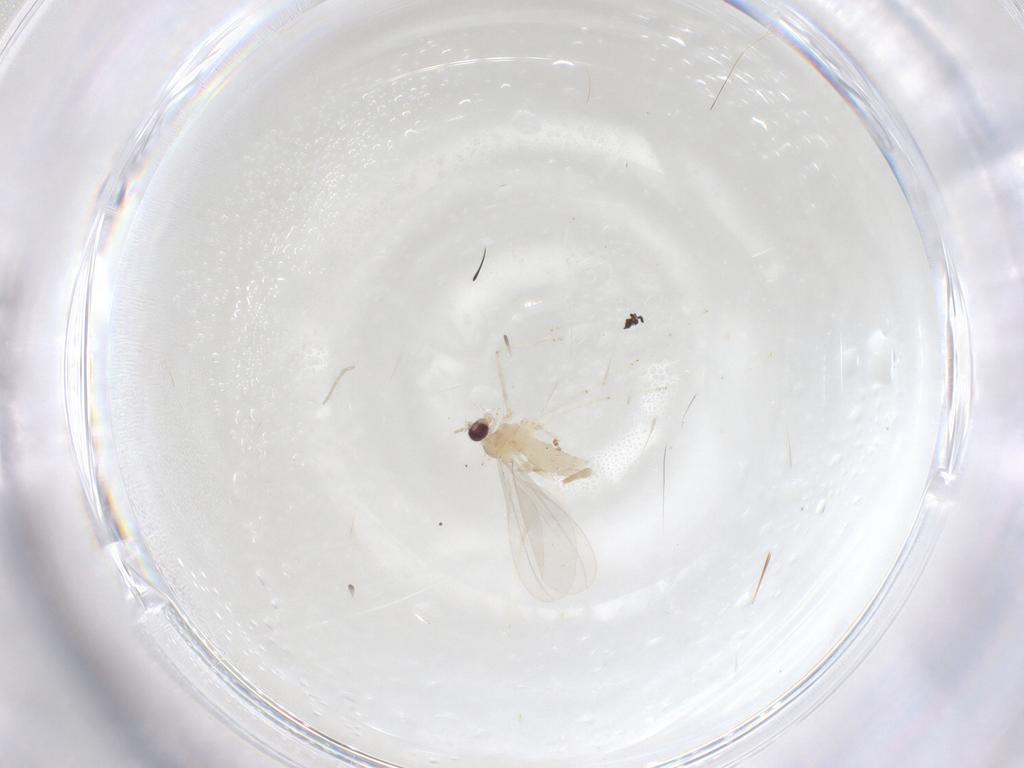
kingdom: Animalia
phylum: Arthropoda
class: Insecta
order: Diptera
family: Cecidomyiidae
